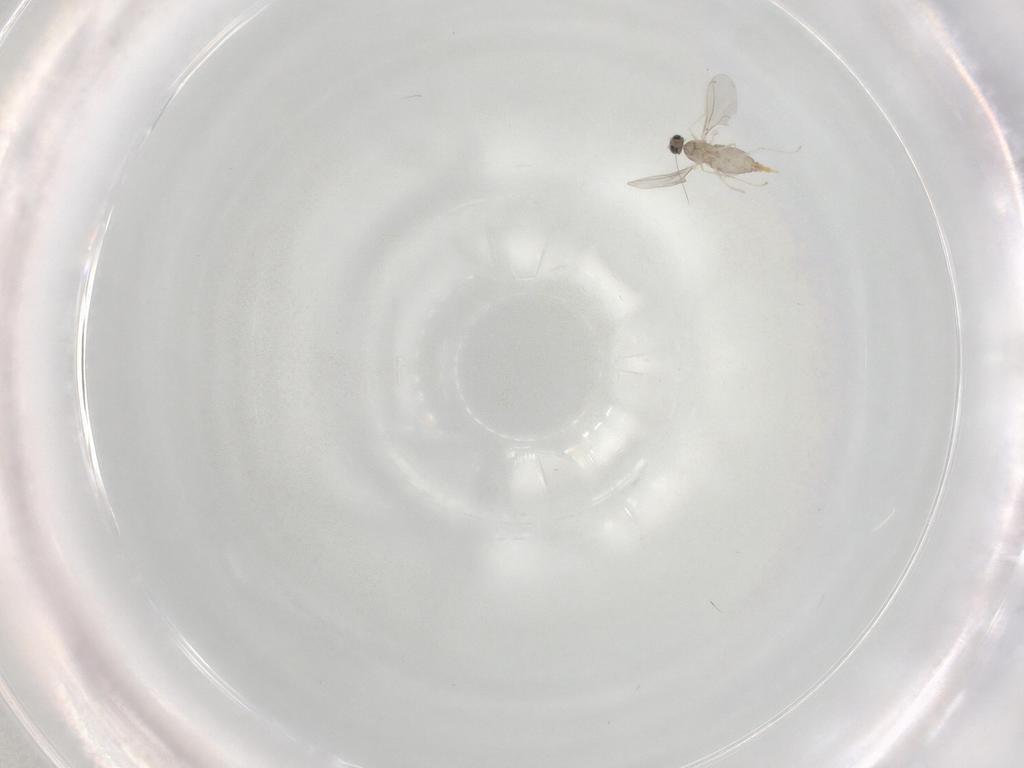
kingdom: Animalia
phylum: Arthropoda
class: Insecta
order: Diptera
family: Cecidomyiidae
